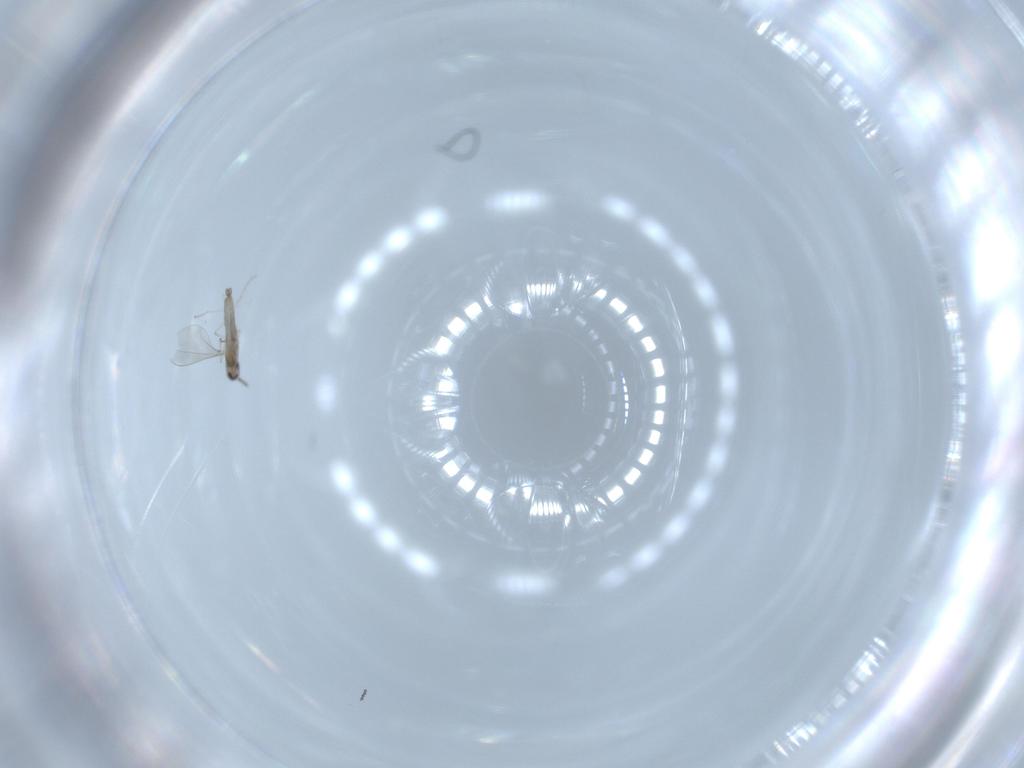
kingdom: Animalia
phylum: Arthropoda
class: Insecta
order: Diptera
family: Cecidomyiidae
